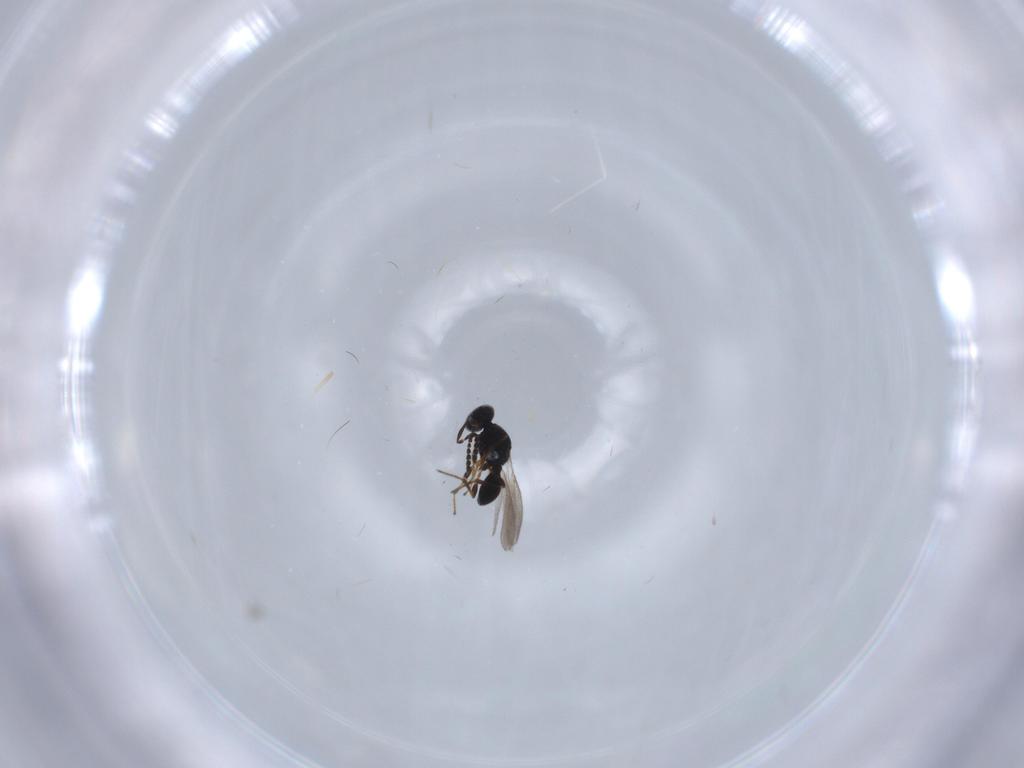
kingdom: Animalia
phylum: Arthropoda
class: Insecta
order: Hymenoptera
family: Platygastridae
